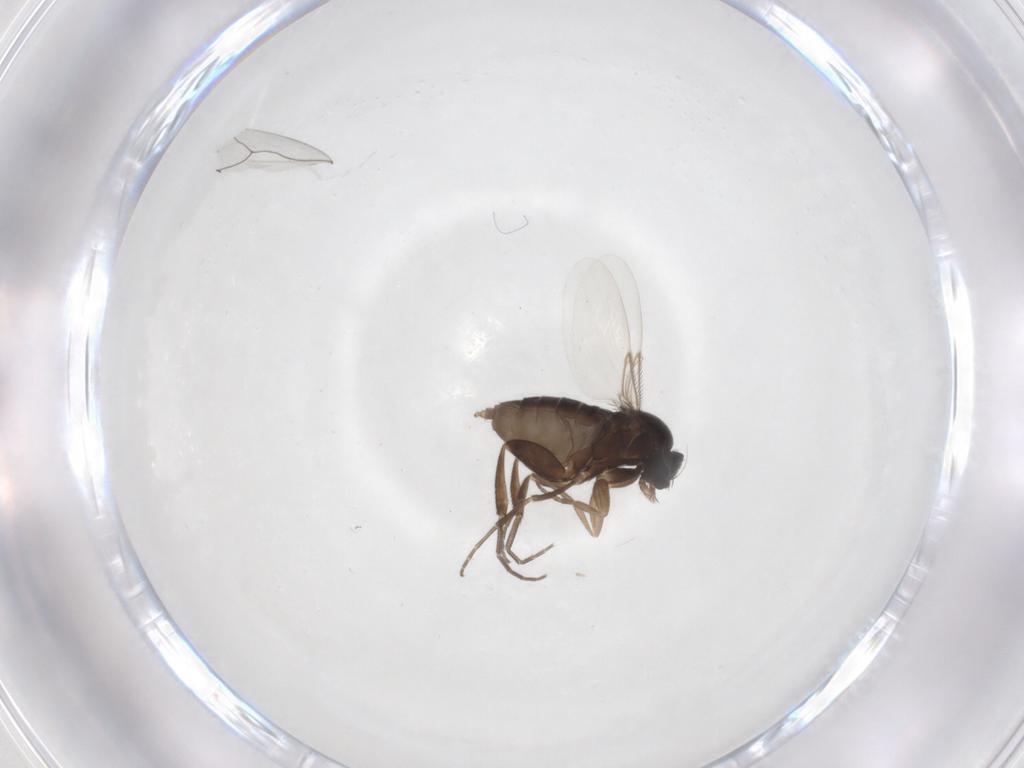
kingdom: Animalia
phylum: Arthropoda
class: Insecta
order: Diptera
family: Phoridae
